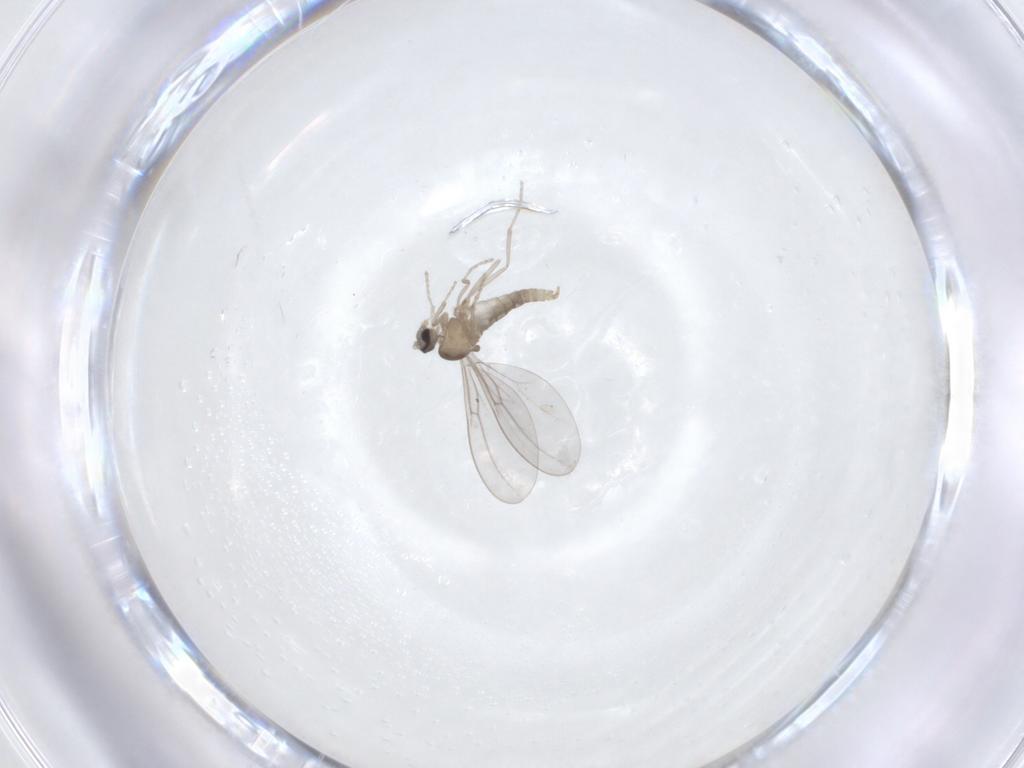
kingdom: Animalia
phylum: Arthropoda
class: Insecta
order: Diptera
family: Cecidomyiidae
